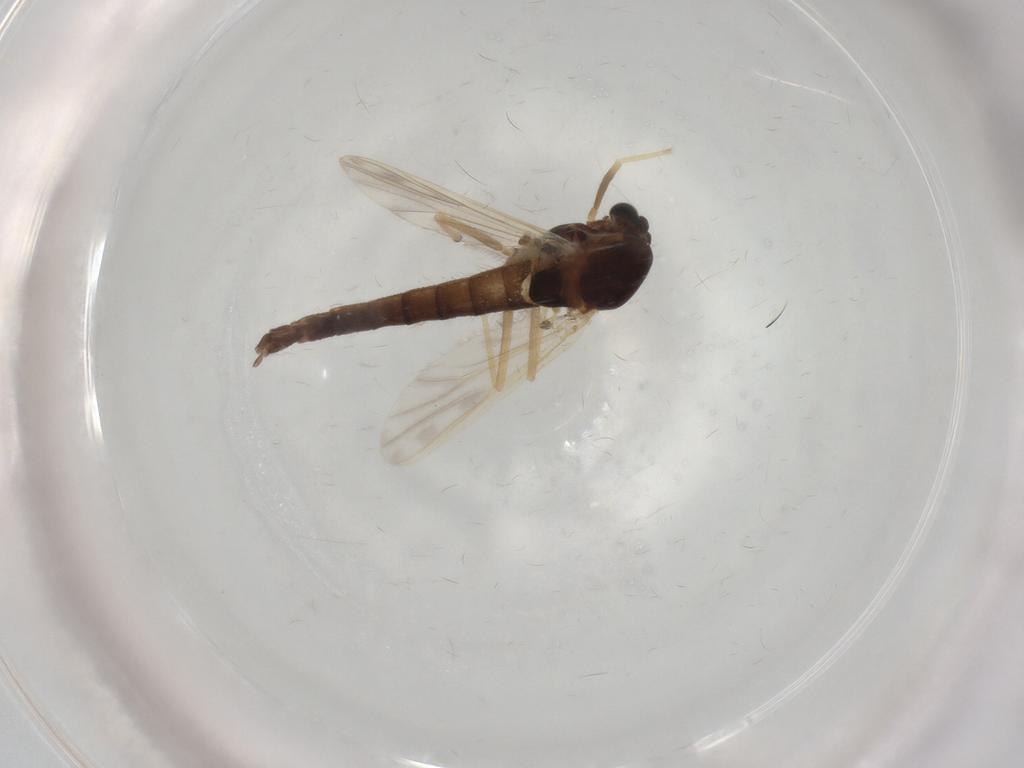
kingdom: Animalia
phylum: Arthropoda
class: Insecta
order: Diptera
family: Chironomidae
